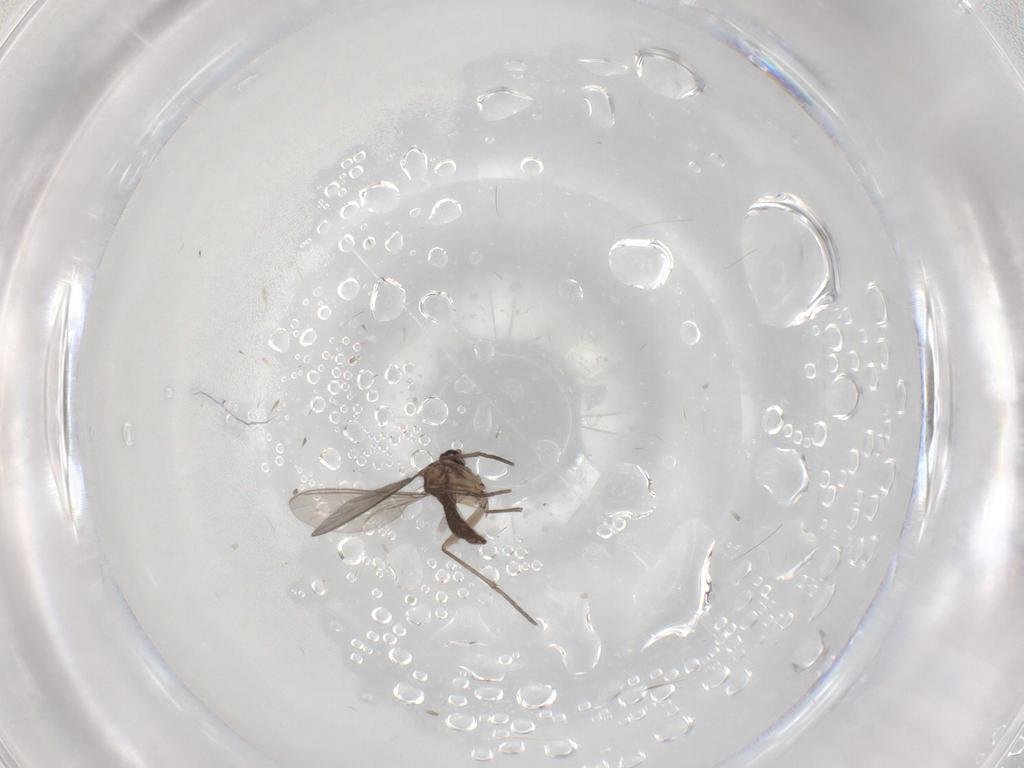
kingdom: Animalia
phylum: Arthropoda
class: Insecta
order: Diptera
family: Sciaridae
